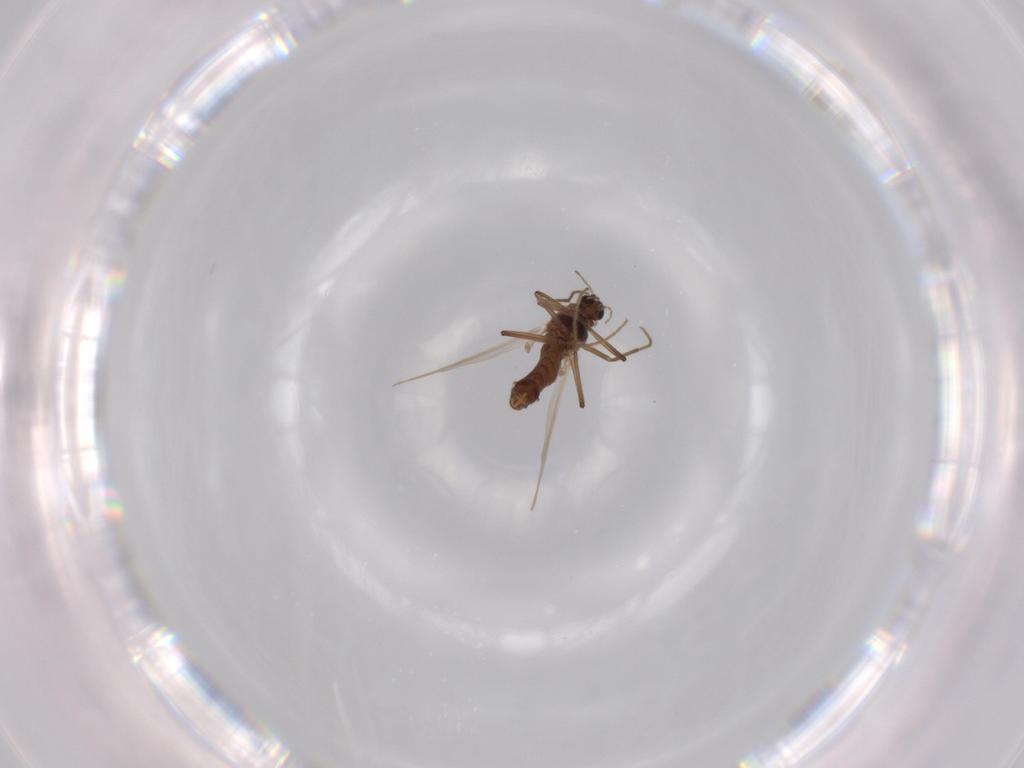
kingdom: Animalia
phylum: Arthropoda
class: Insecta
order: Diptera
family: Chironomidae
